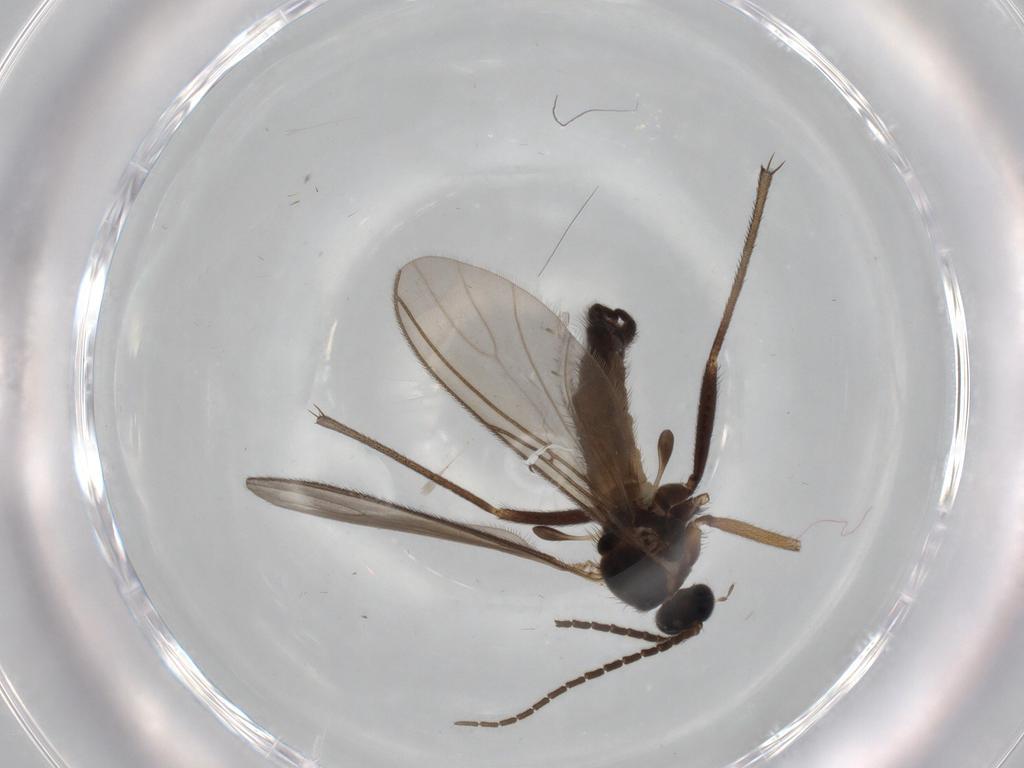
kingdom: Animalia
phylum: Arthropoda
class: Insecta
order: Diptera
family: Sciaridae
